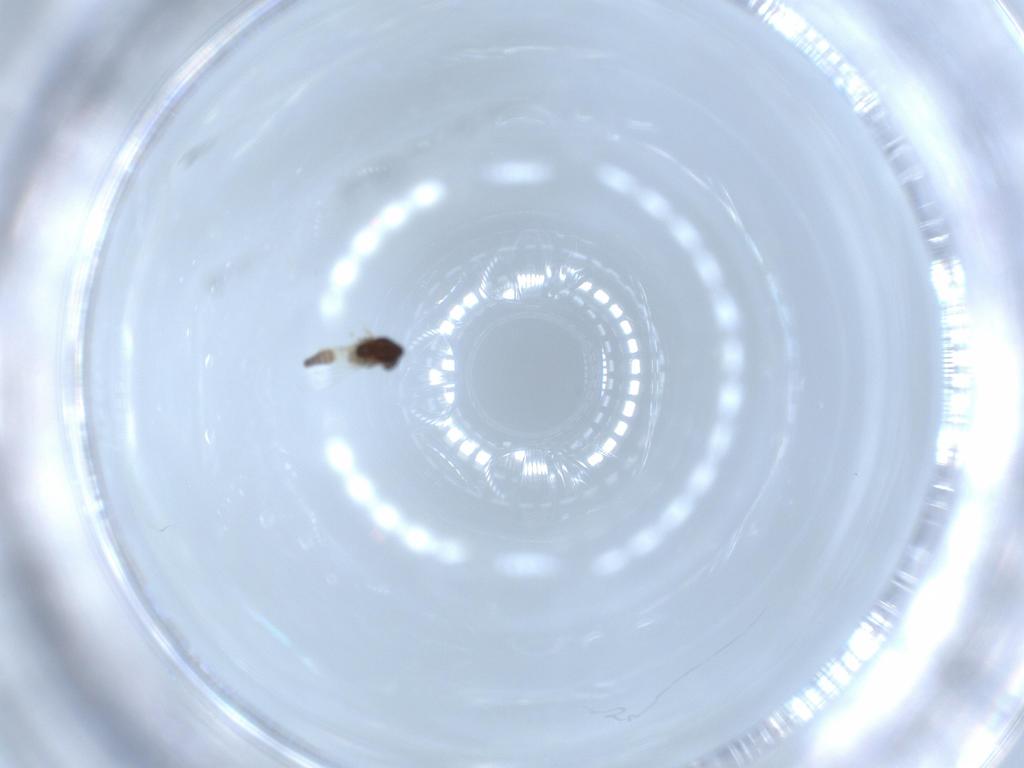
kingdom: Animalia
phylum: Arthropoda
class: Insecta
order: Diptera
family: Chironomidae
